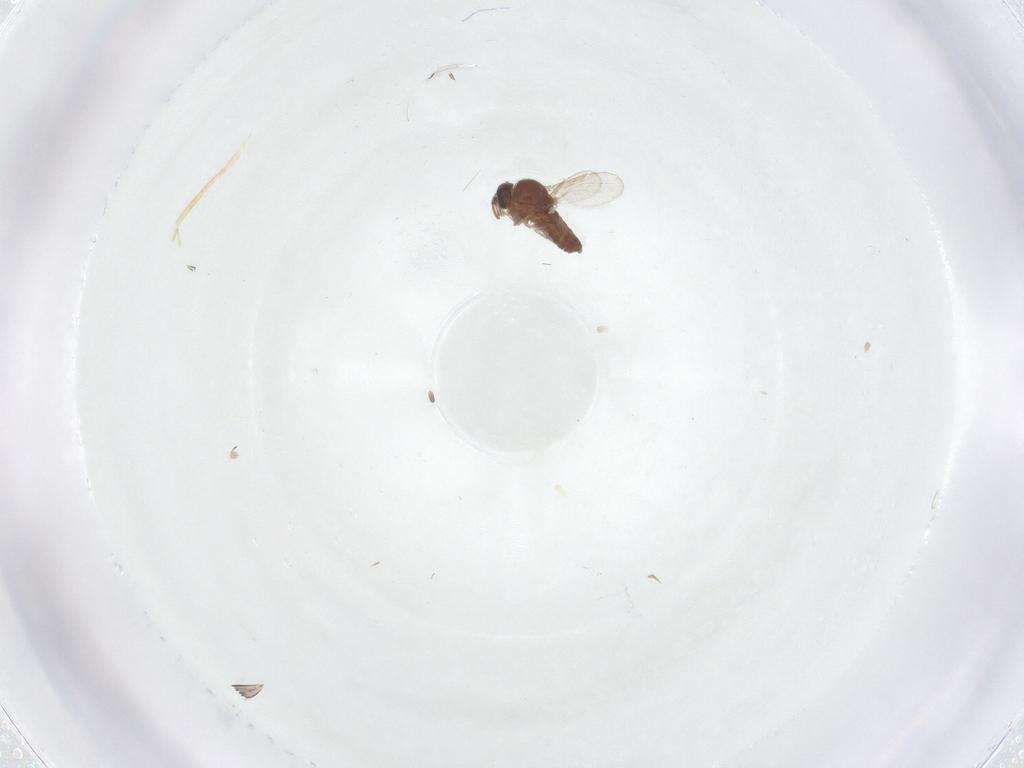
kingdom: Animalia
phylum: Arthropoda
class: Insecta
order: Diptera
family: Ceratopogonidae
